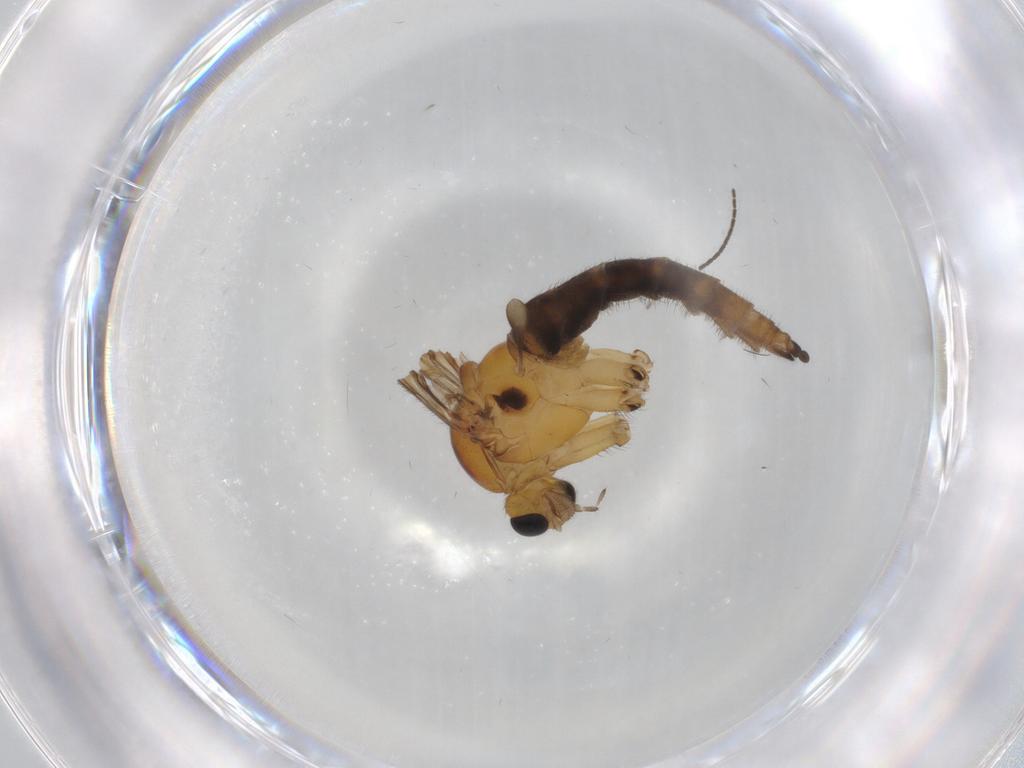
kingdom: Animalia
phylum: Arthropoda
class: Insecta
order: Diptera
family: Sciaridae
